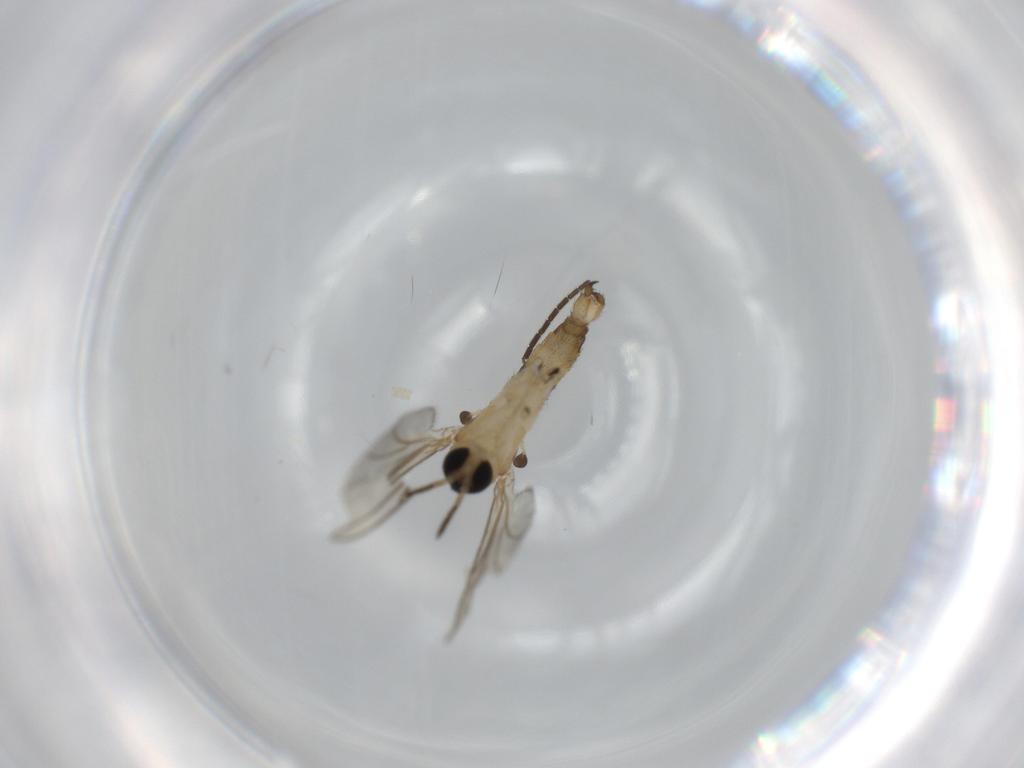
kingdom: Animalia
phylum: Arthropoda
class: Insecta
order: Diptera
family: Sciaridae
